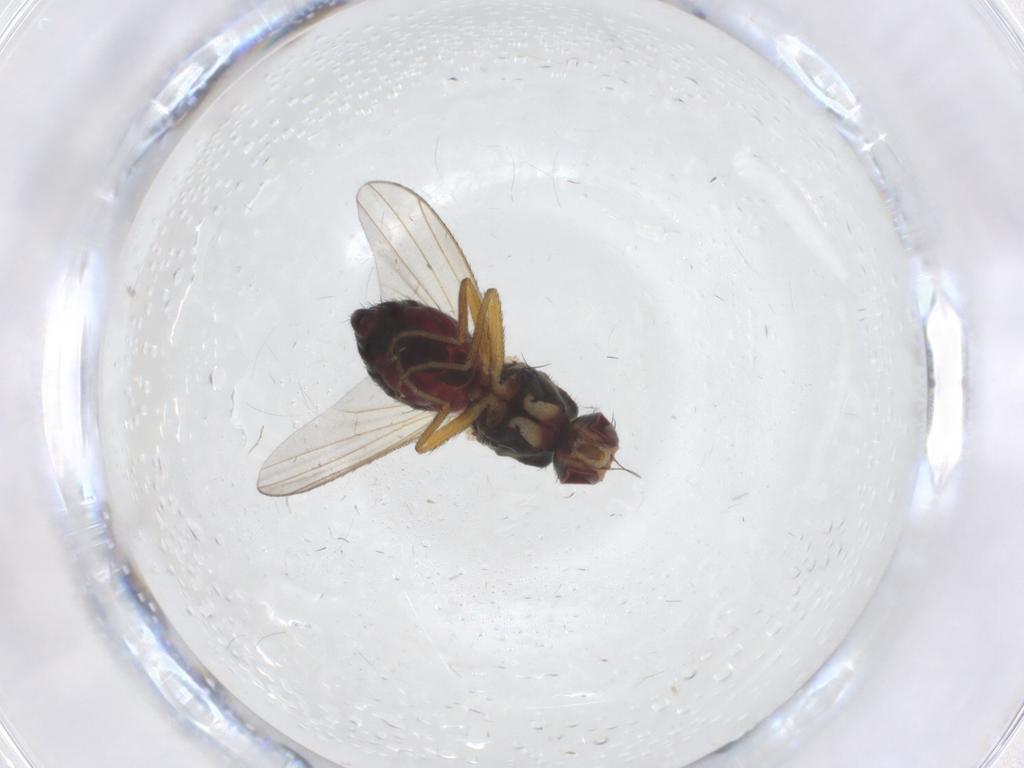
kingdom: Animalia
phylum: Arthropoda
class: Insecta
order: Diptera
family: Heleomyzidae
